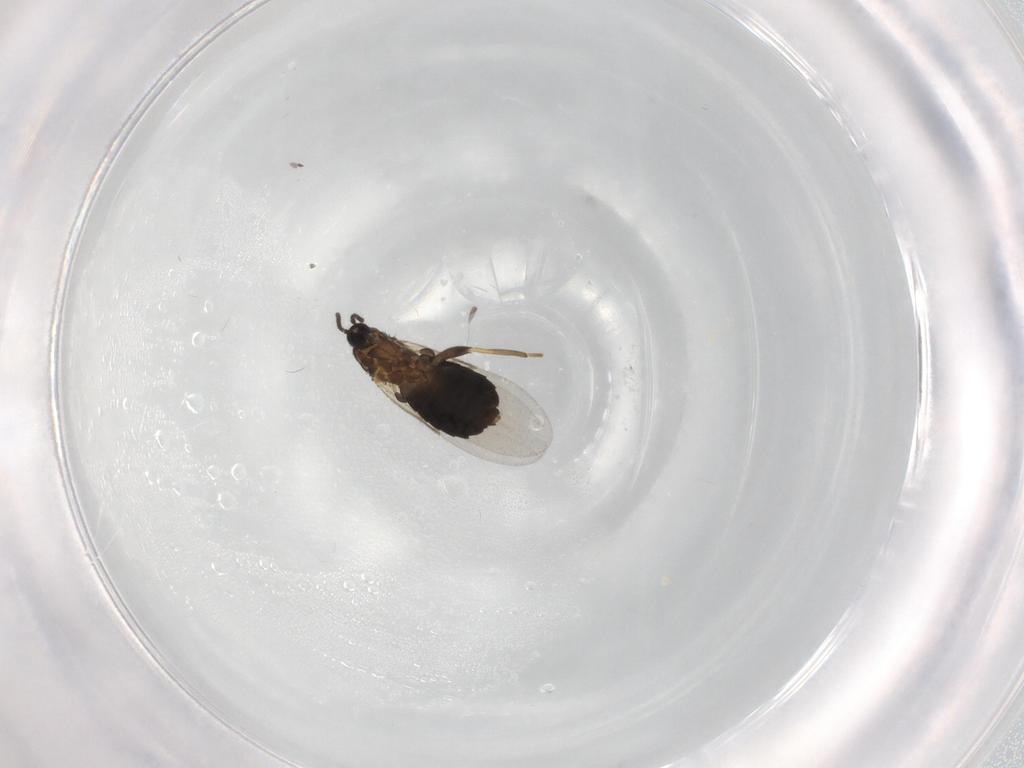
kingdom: Animalia
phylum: Arthropoda
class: Insecta
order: Diptera
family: Scatopsidae
